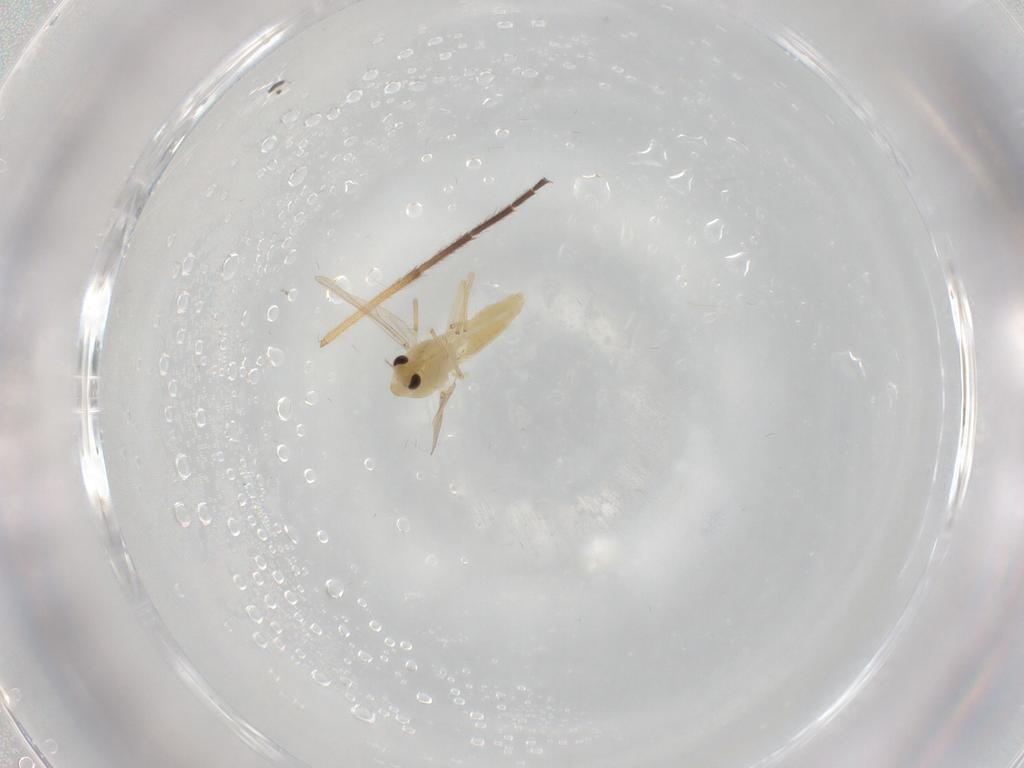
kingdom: Animalia
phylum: Arthropoda
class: Insecta
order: Diptera
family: Chironomidae
